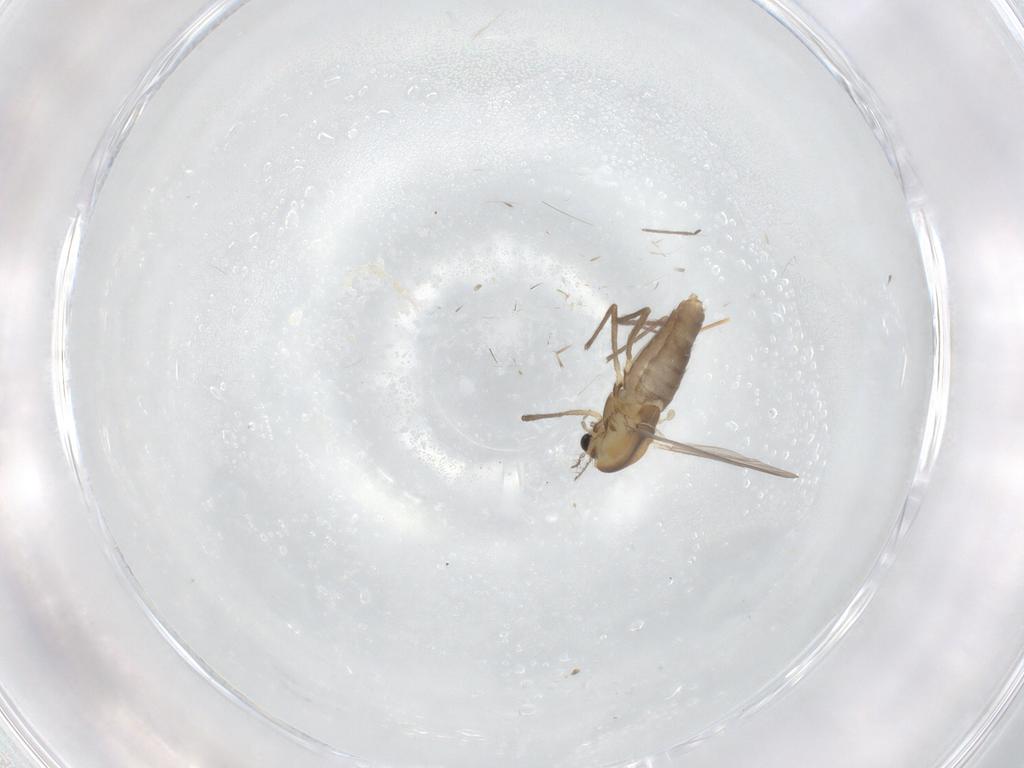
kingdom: Animalia
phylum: Arthropoda
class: Insecta
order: Diptera
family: Chironomidae
